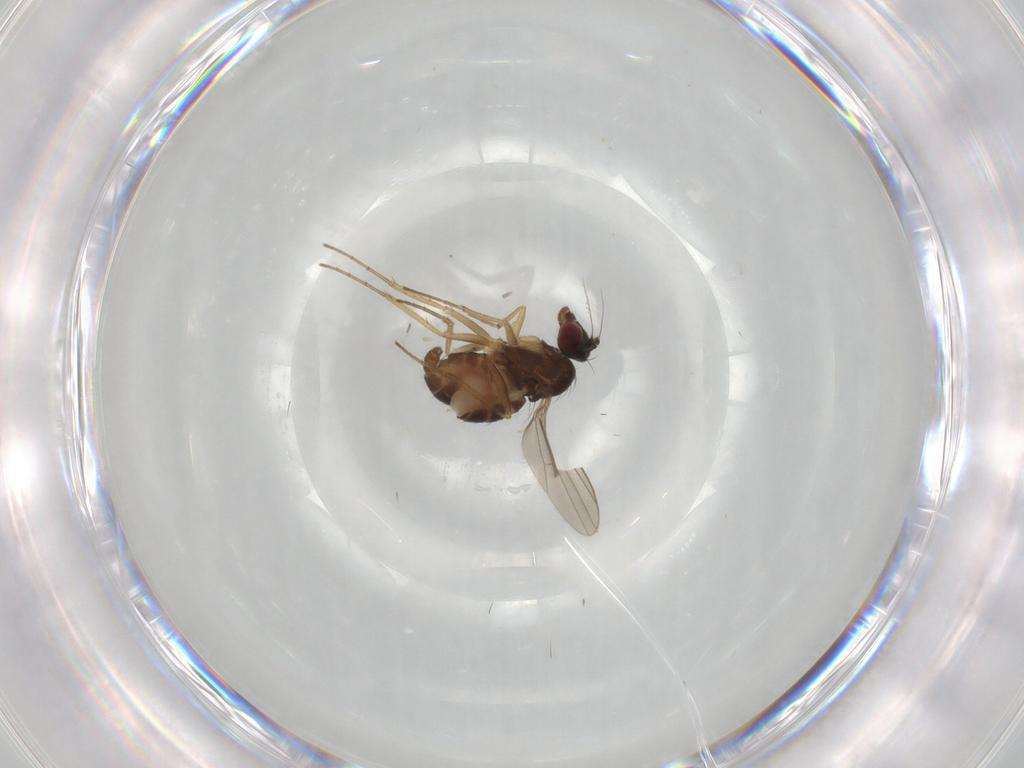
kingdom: Animalia
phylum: Arthropoda
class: Insecta
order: Diptera
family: Dolichopodidae
